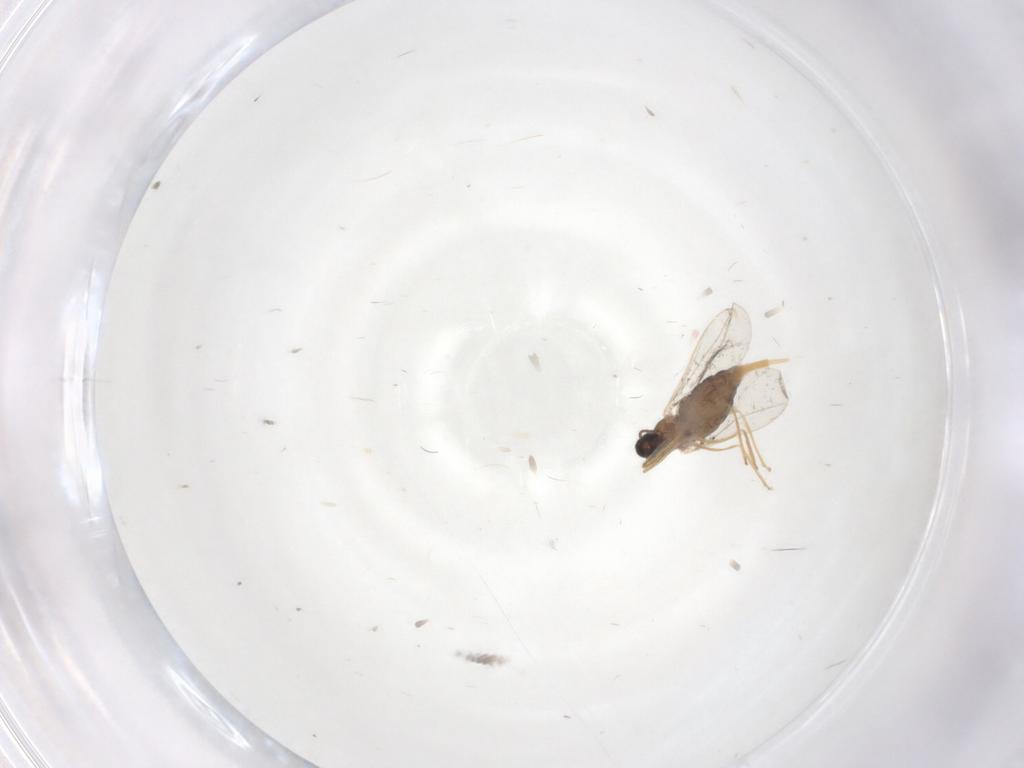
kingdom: Animalia
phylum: Arthropoda
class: Insecta
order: Diptera
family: Cecidomyiidae
